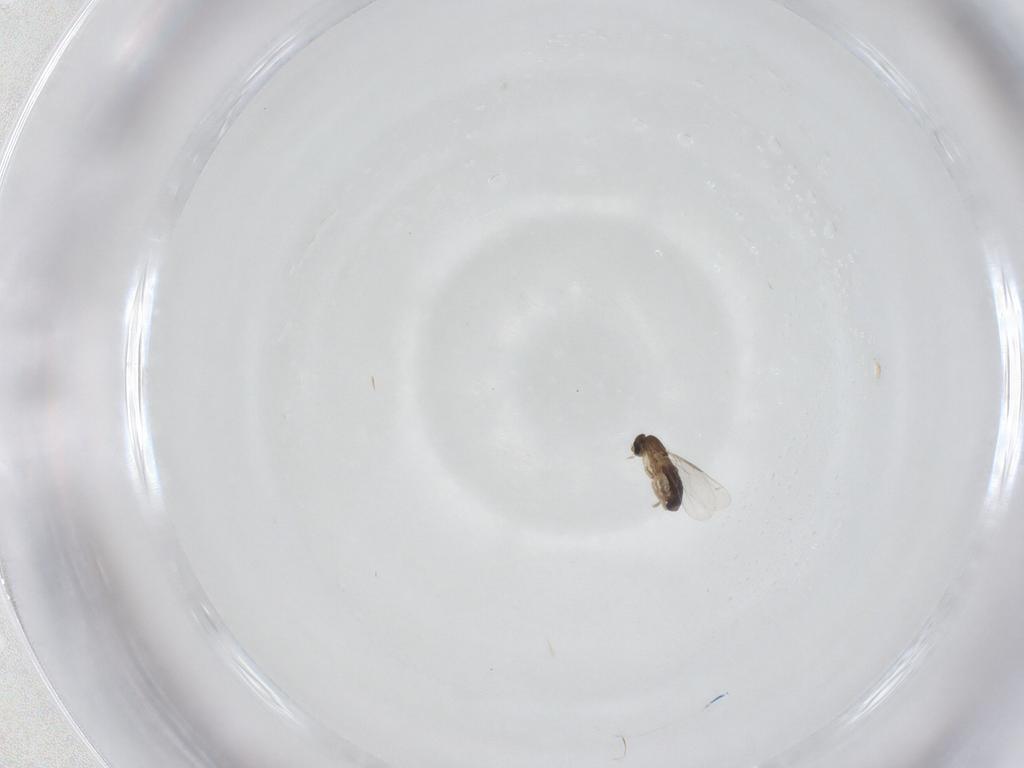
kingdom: Animalia
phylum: Arthropoda
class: Insecta
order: Diptera
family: Phoridae
